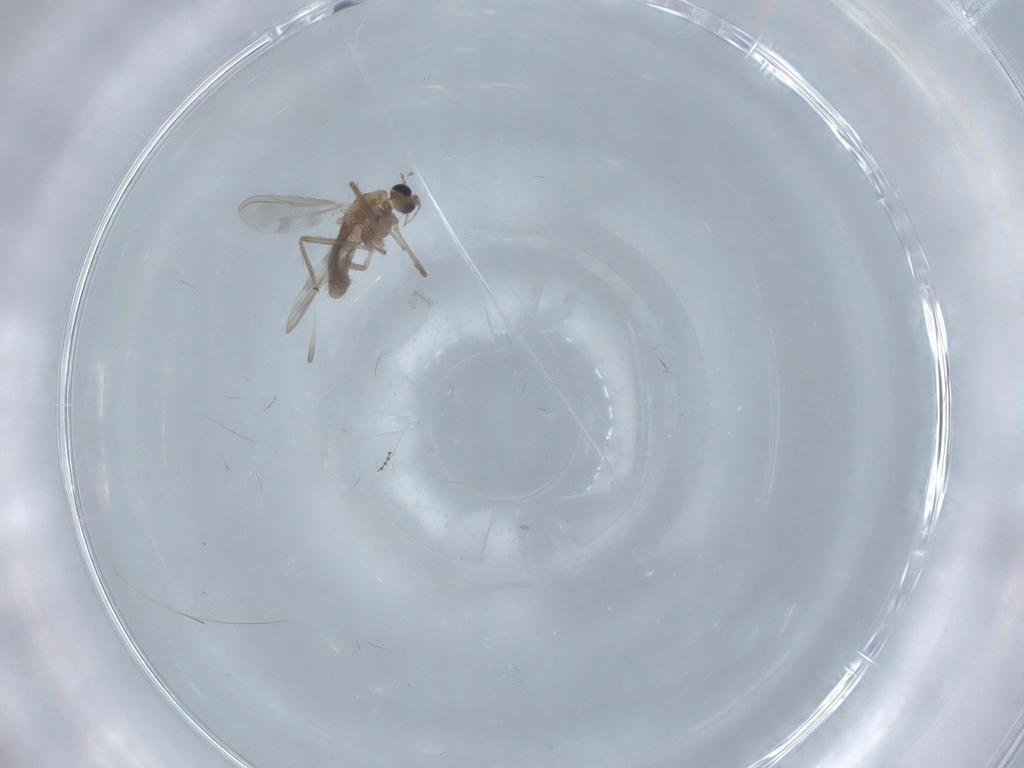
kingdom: Animalia
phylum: Arthropoda
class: Insecta
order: Diptera
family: Chironomidae
